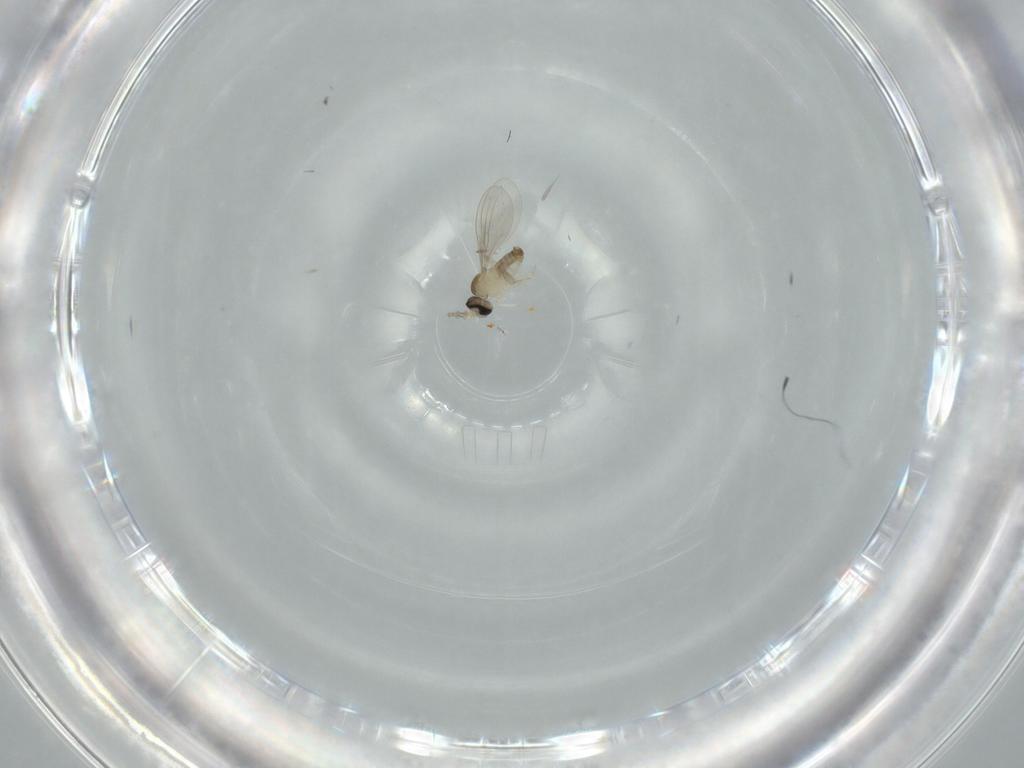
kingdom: Animalia
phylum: Arthropoda
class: Insecta
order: Diptera
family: Cecidomyiidae
